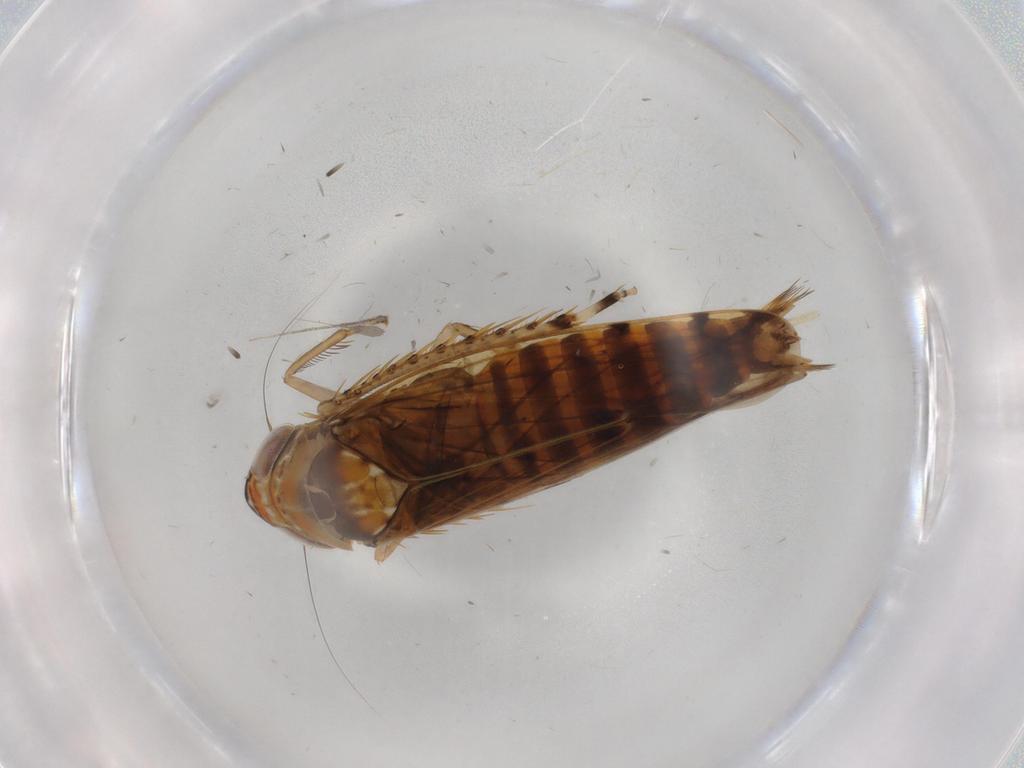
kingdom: Animalia
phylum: Arthropoda
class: Insecta
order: Hemiptera
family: Cicadellidae
